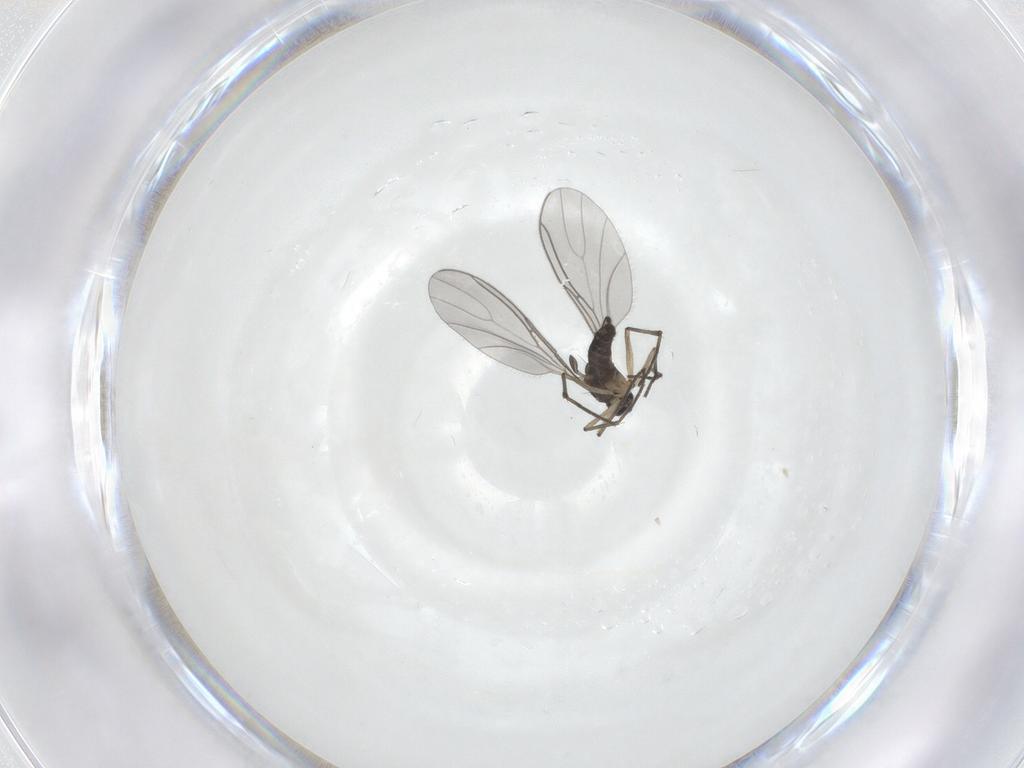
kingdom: Animalia
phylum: Arthropoda
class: Insecta
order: Diptera
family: Sciaridae
